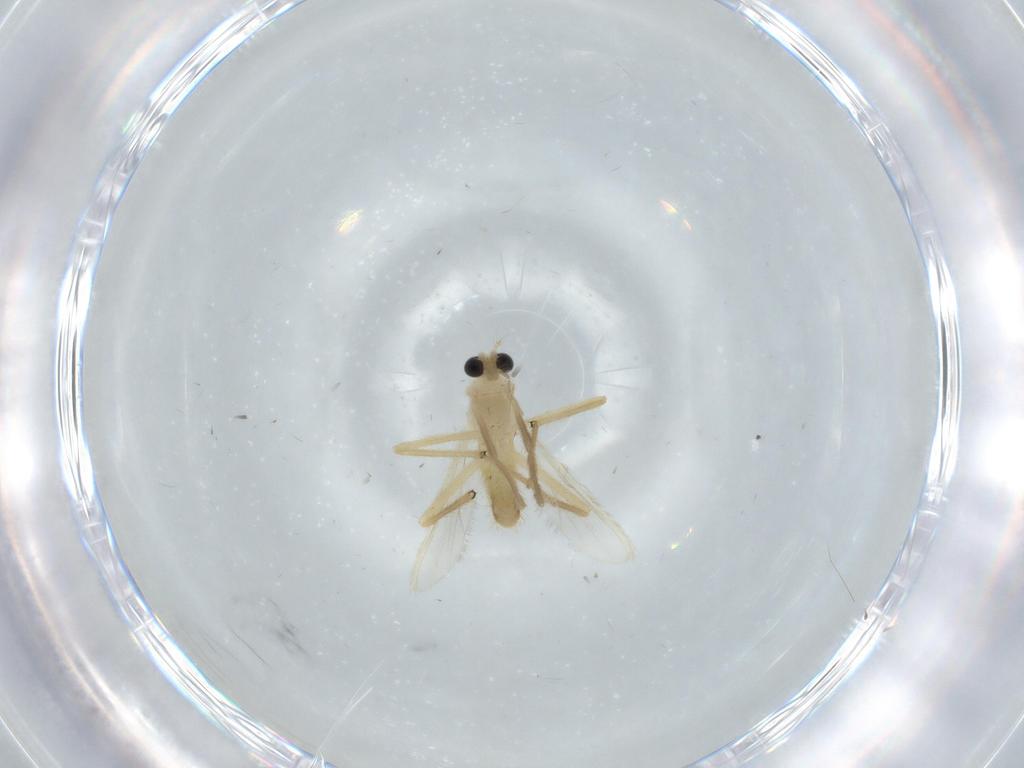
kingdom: Animalia
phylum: Arthropoda
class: Insecta
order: Diptera
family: Chironomidae
